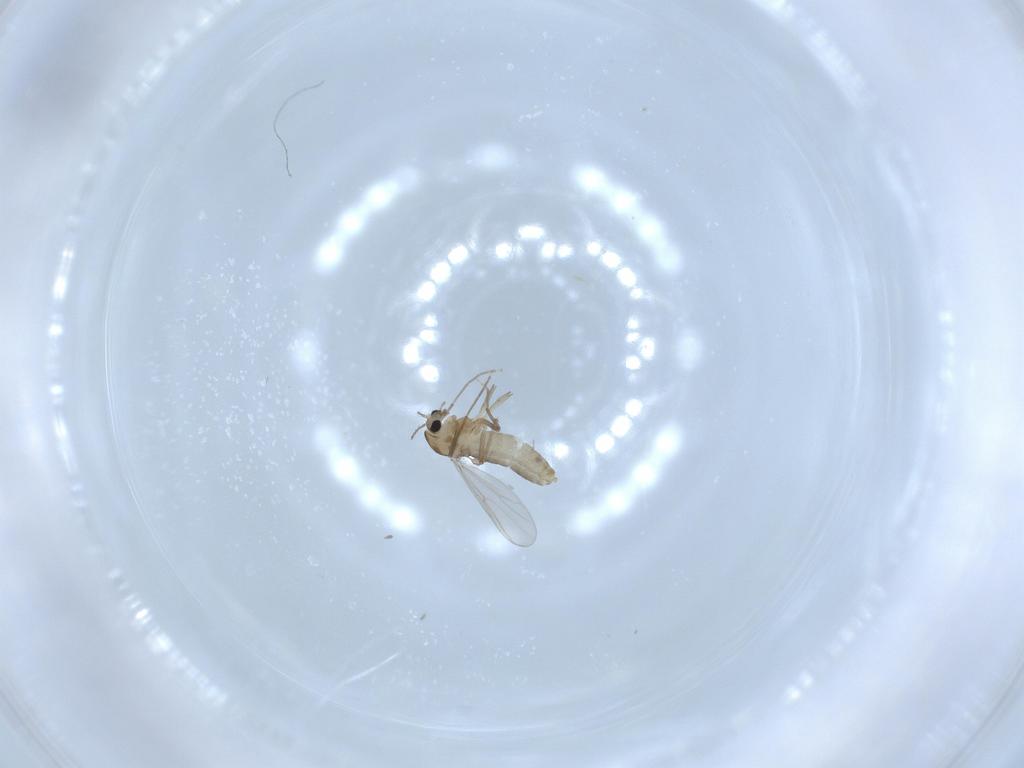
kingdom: Animalia
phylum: Arthropoda
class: Insecta
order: Diptera
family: Chironomidae
